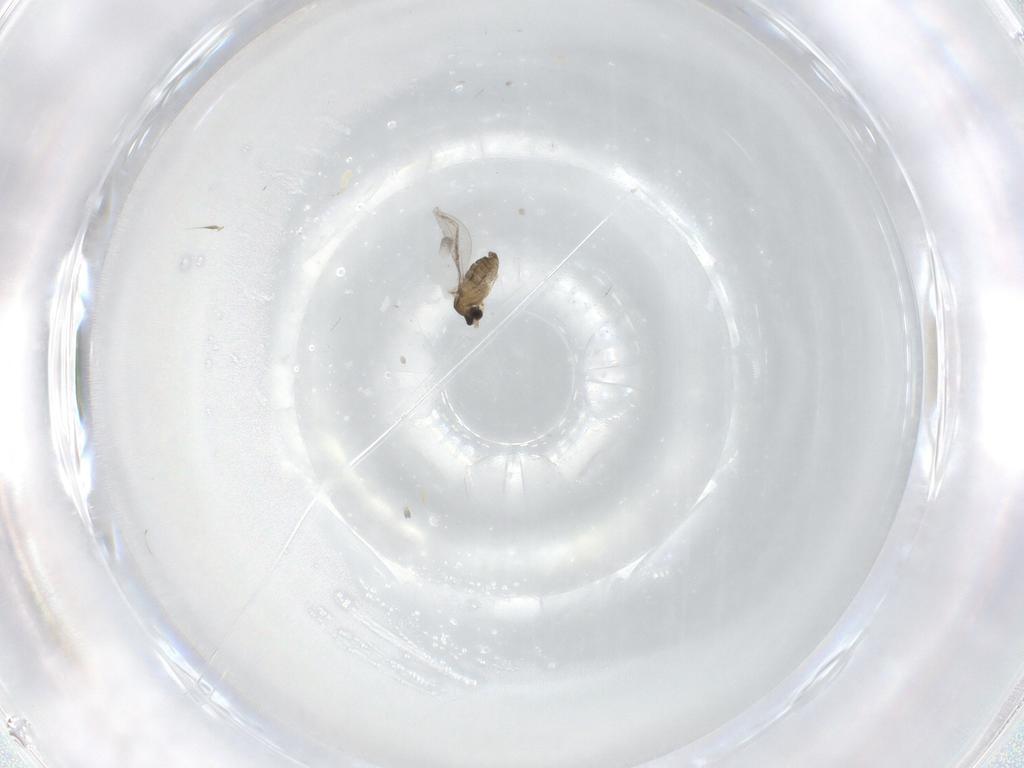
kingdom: Animalia
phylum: Arthropoda
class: Insecta
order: Diptera
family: Cecidomyiidae
